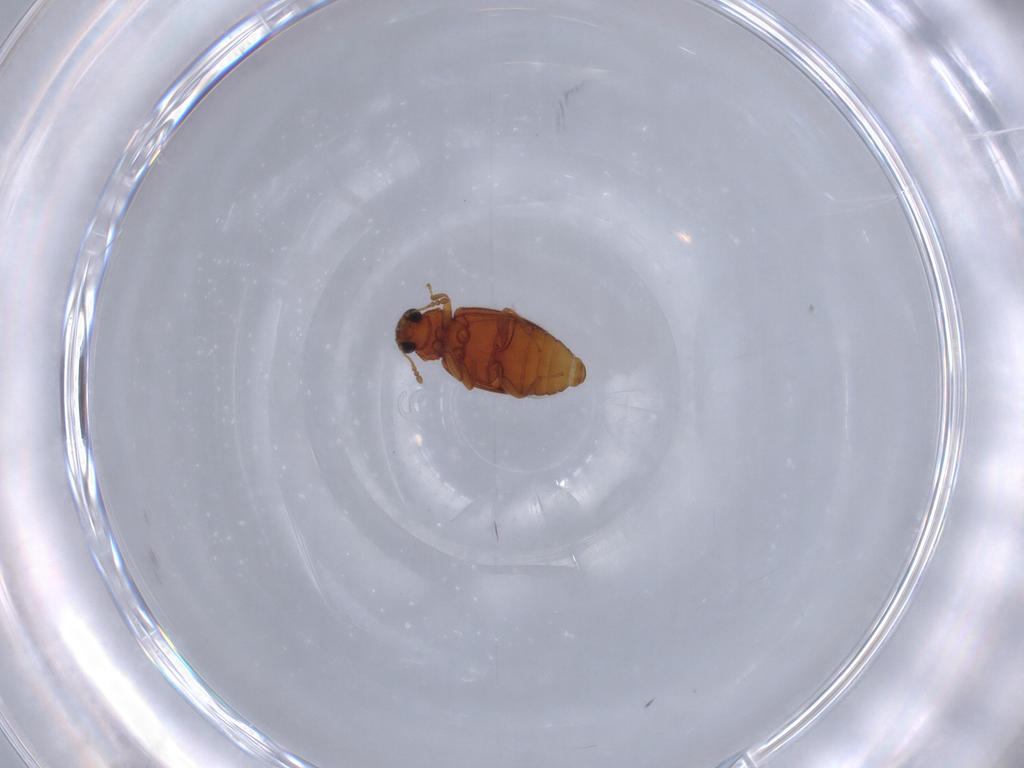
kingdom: Animalia
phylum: Arthropoda
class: Insecta
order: Coleoptera
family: Latridiidae
